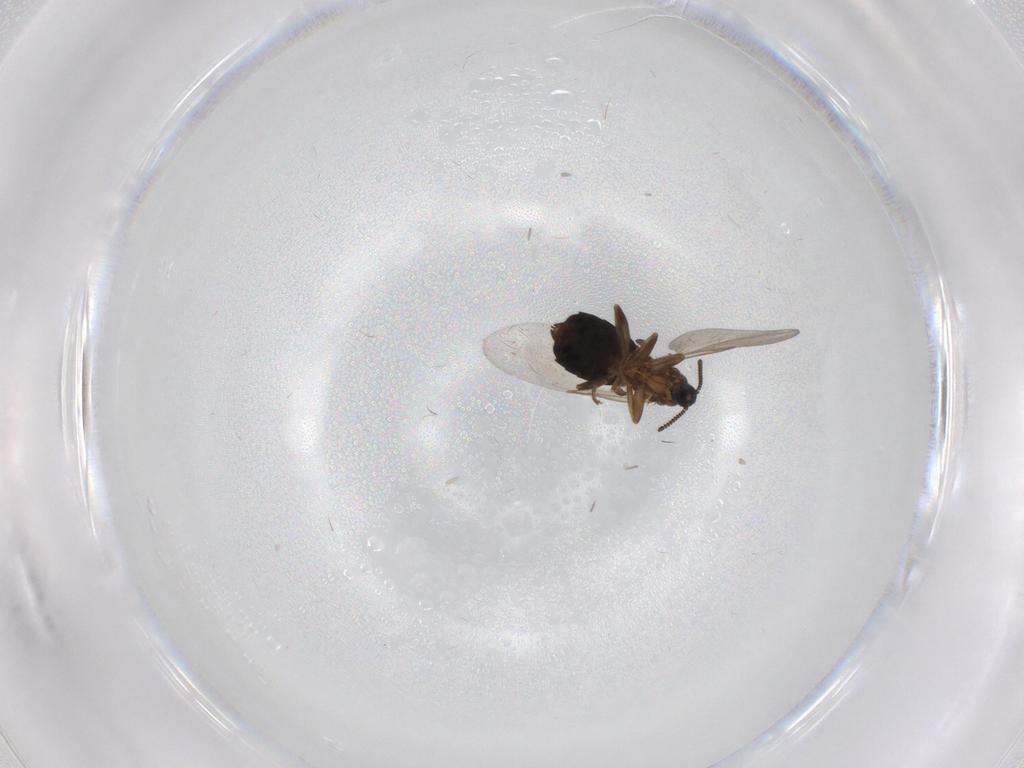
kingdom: Animalia
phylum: Arthropoda
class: Insecta
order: Diptera
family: Scatopsidae
